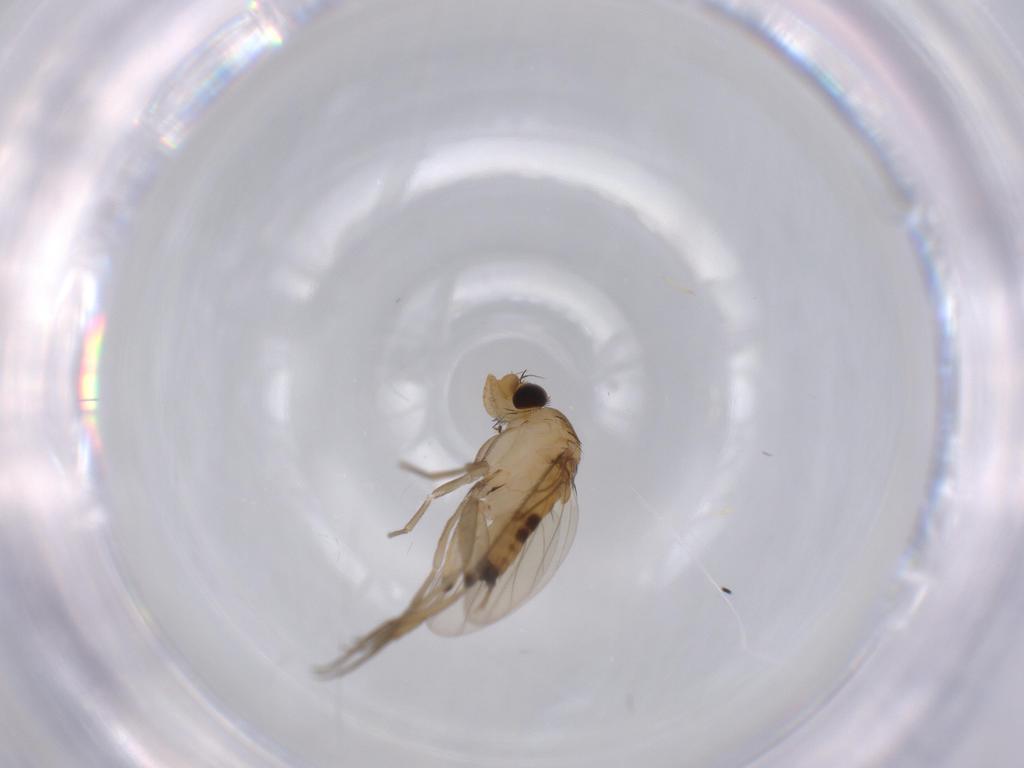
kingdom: Animalia
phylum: Arthropoda
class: Insecta
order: Diptera
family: Phoridae
